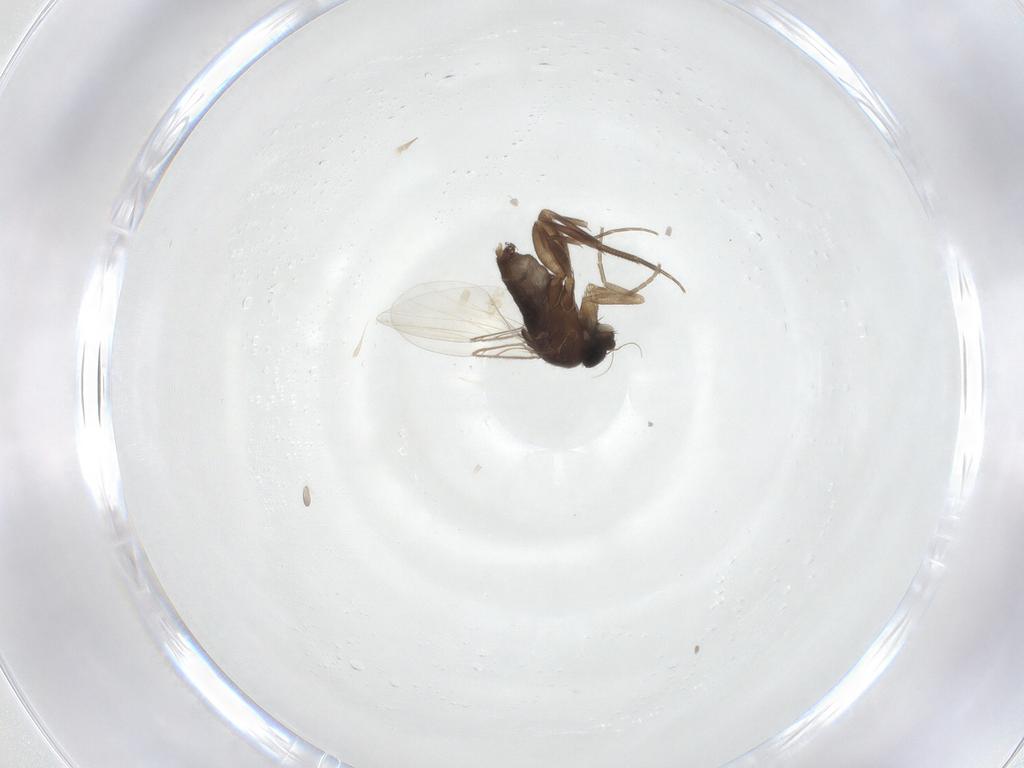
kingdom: Animalia
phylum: Arthropoda
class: Insecta
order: Diptera
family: Phoridae
